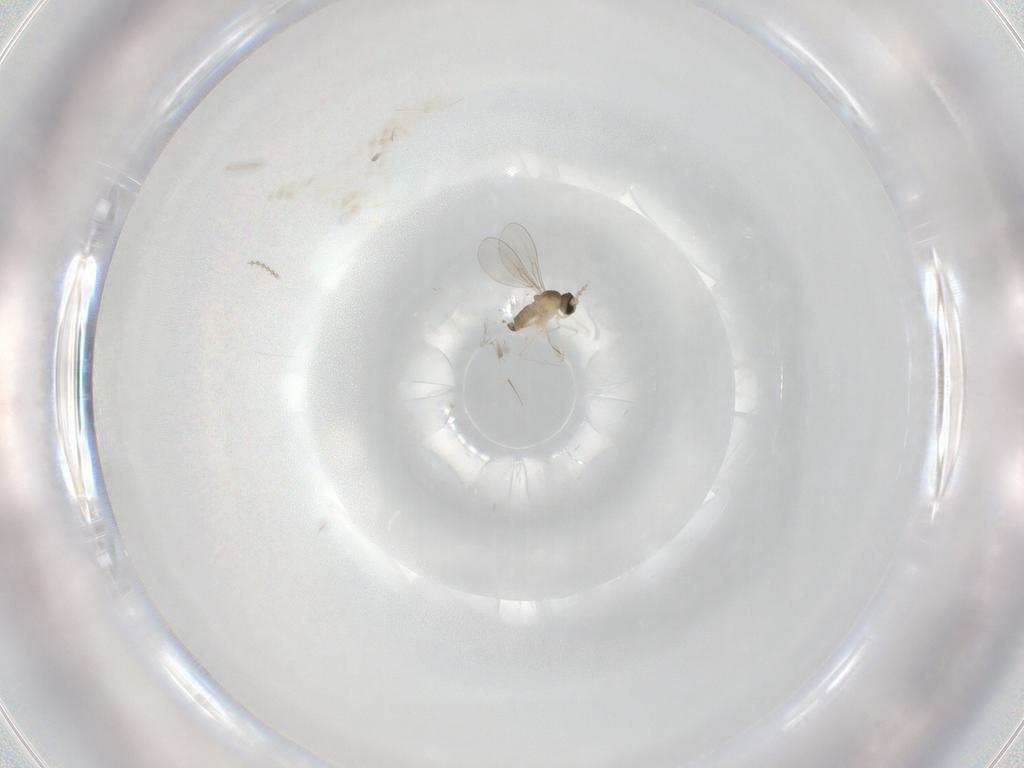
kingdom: Animalia
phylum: Arthropoda
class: Insecta
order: Diptera
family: Cecidomyiidae
